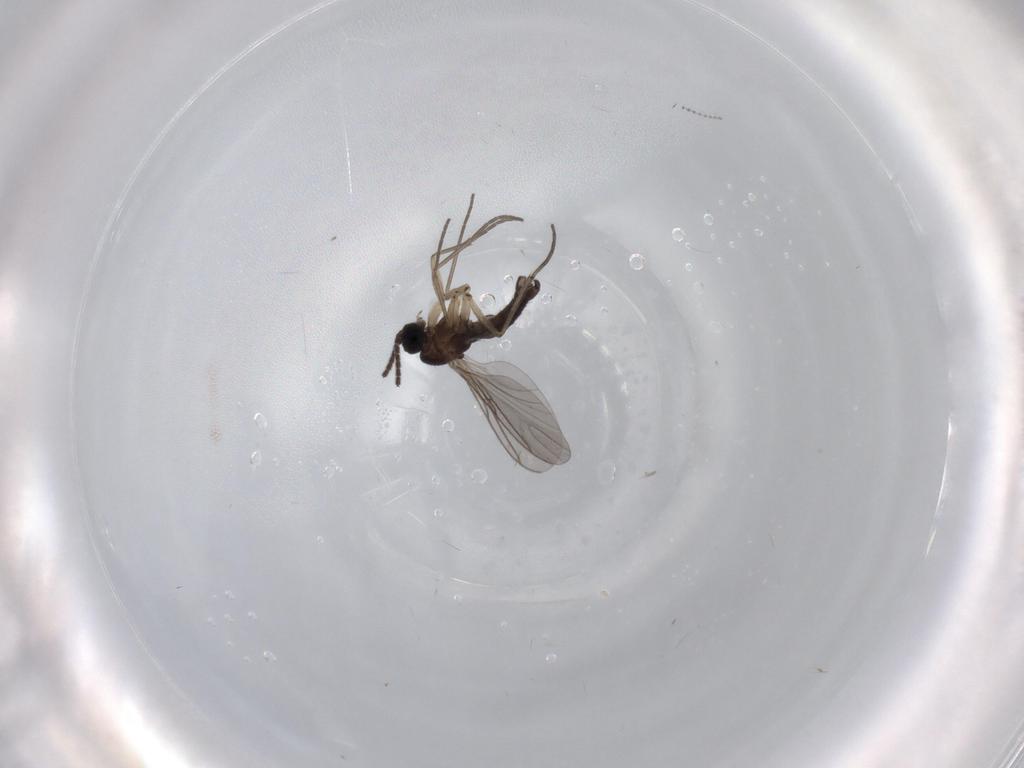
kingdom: Animalia
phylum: Arthropoda
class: Insecta
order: Diptera
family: Sciaridae
